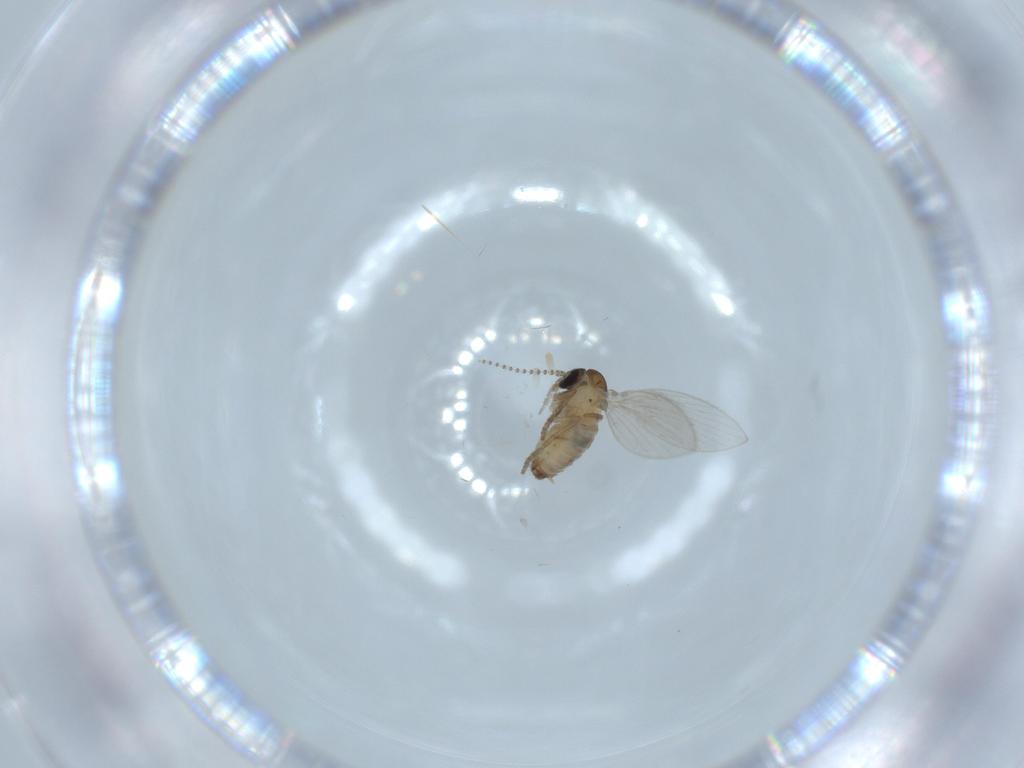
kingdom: Animalia
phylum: Arthropoda
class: Insecta
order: Diptera
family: Psychodidae
